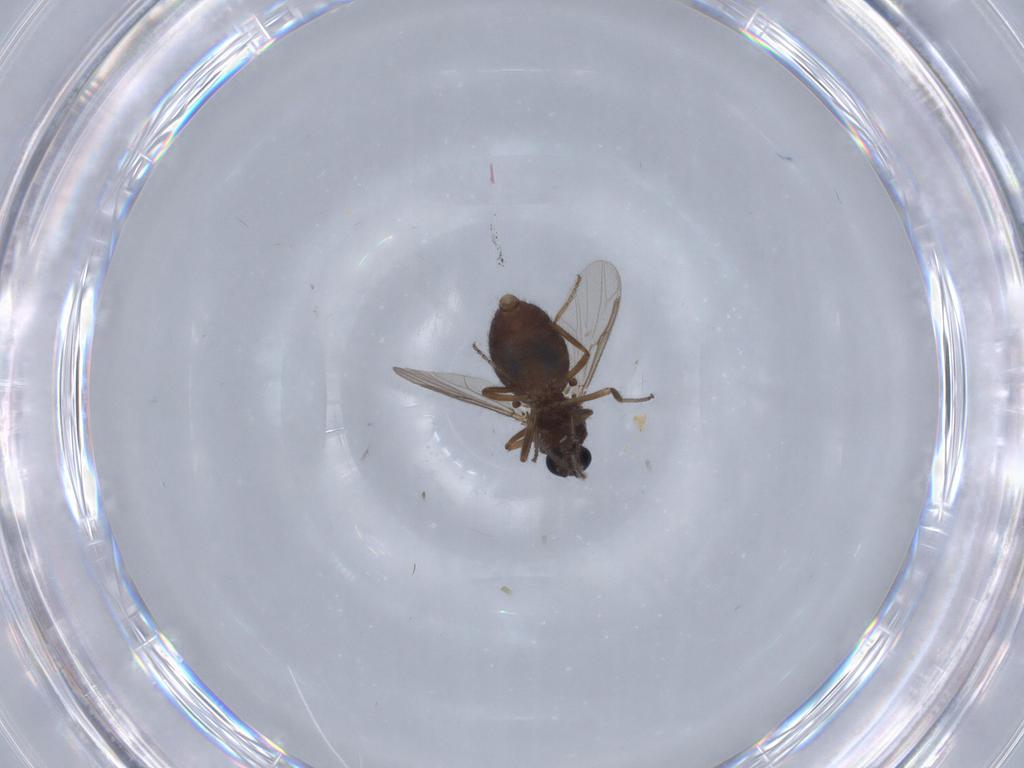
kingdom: Animalia
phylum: Arthropoda
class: Insecta
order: Diptera
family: Ceratopogonidae
